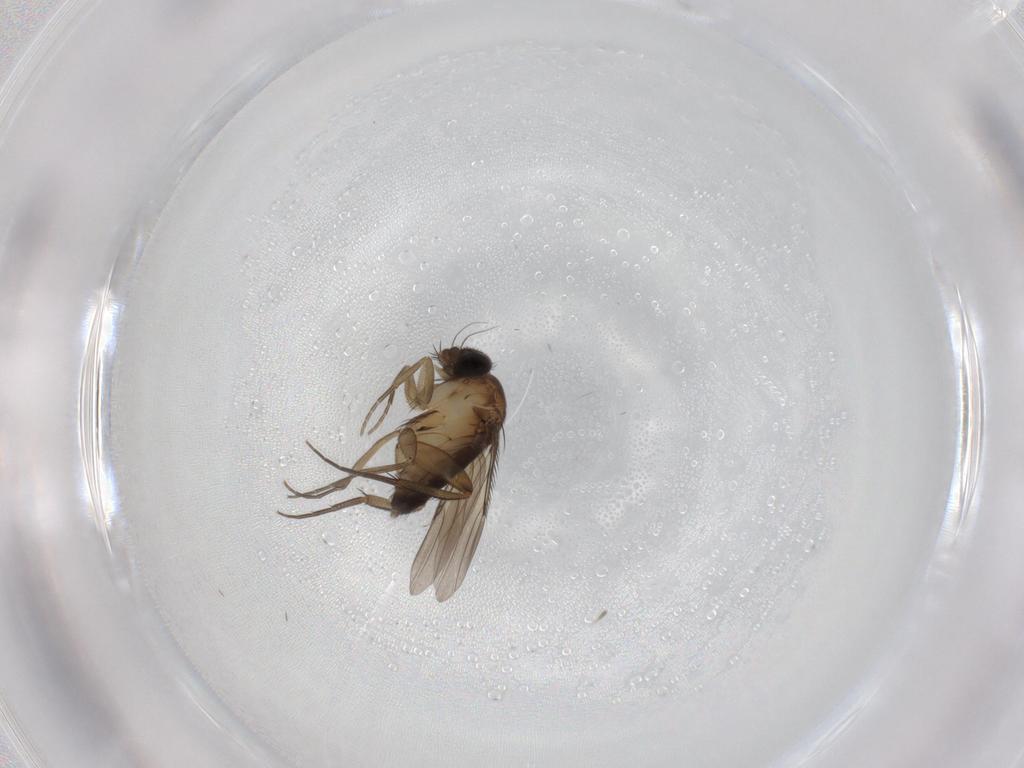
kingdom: Animalia
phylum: Arthropoda
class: Insecta
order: Diptera
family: Phoridae
